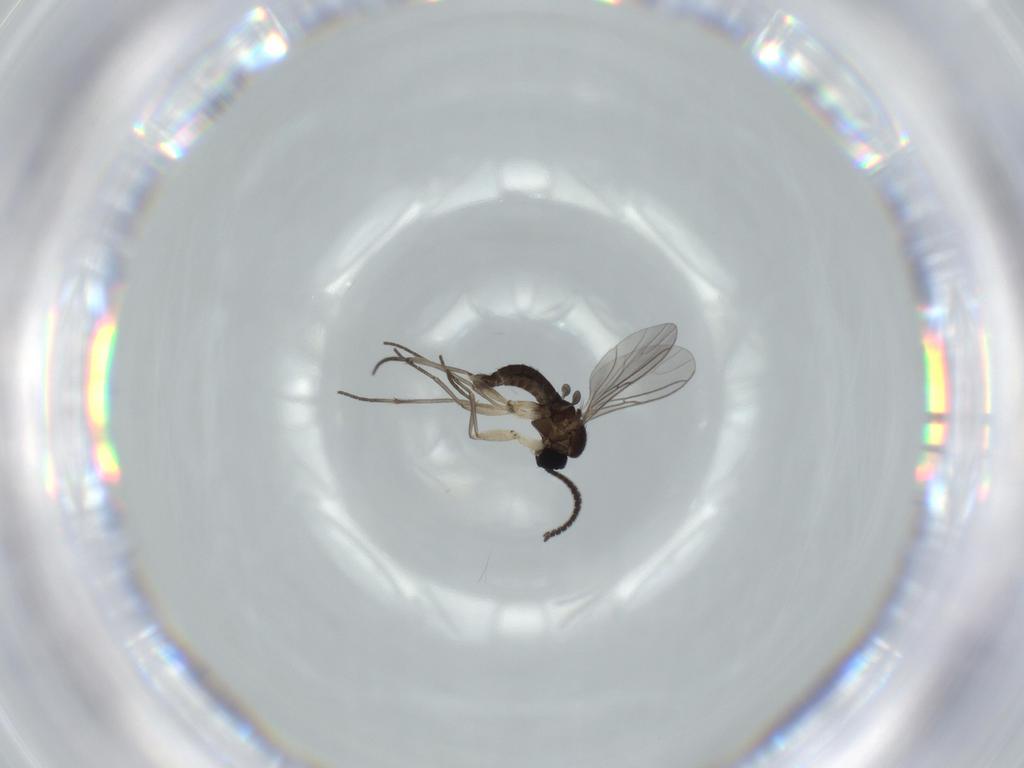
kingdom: Animalia
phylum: Arthropoda
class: Insecta
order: Diptera
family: Sciaridae
